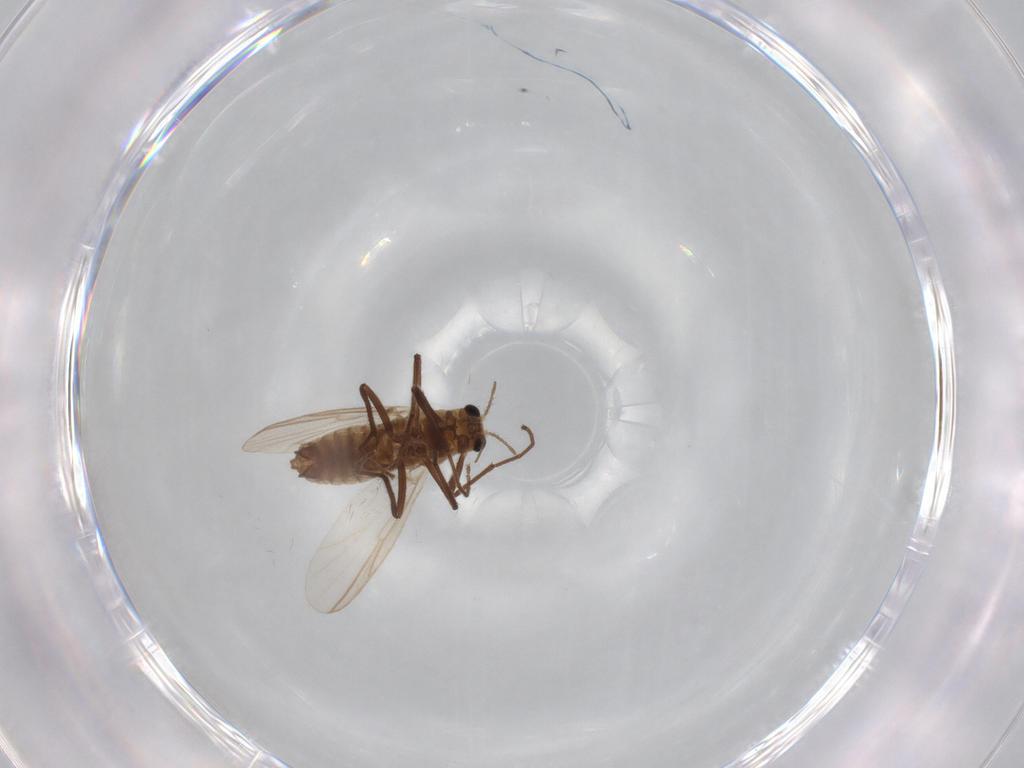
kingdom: Animalia
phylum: Arthropoda
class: Insecta
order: Diptera
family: Chironomidae
